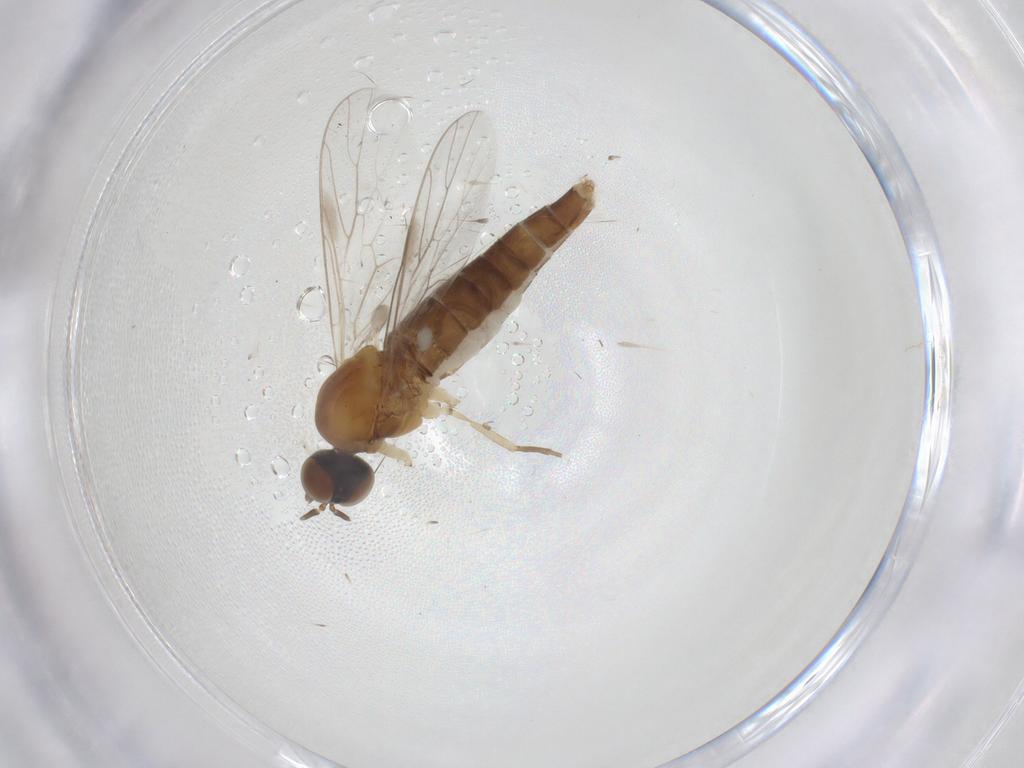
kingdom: Animalia
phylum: Arthropoda
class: Insecta
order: Diptera
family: Scenopinidae
